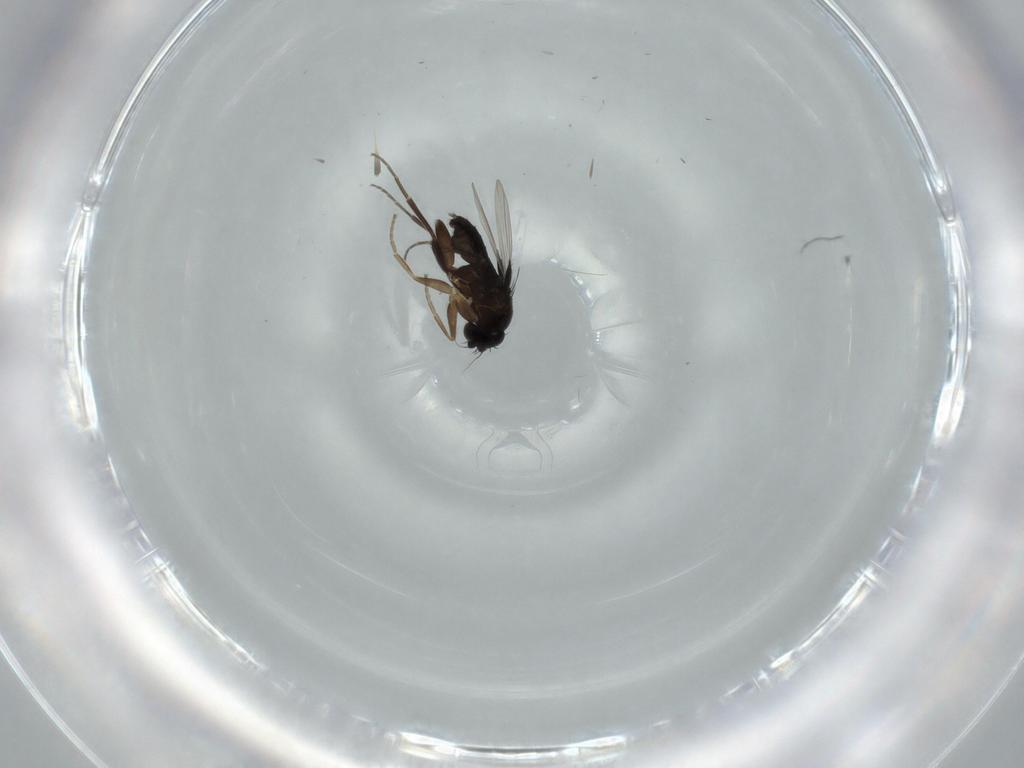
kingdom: Animalia
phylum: Arthropoda
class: Insecta
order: Diptera
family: Phoridae
